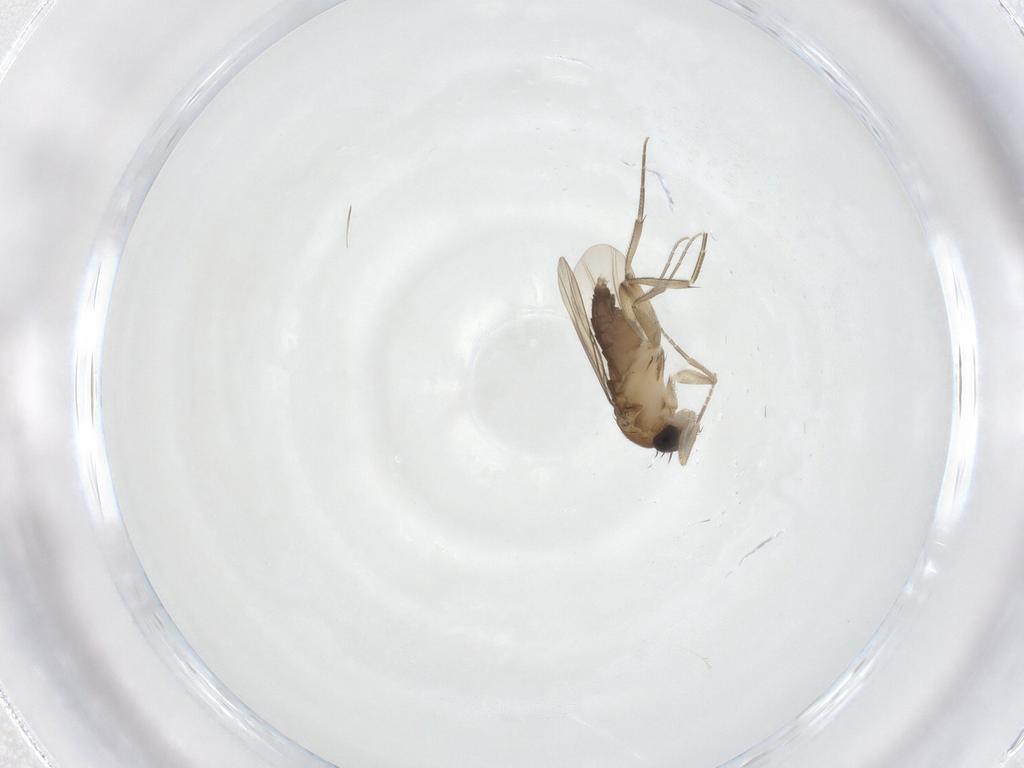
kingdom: Animalia
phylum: Arthropoda
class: Insecta
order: Diptera
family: Phoridae
